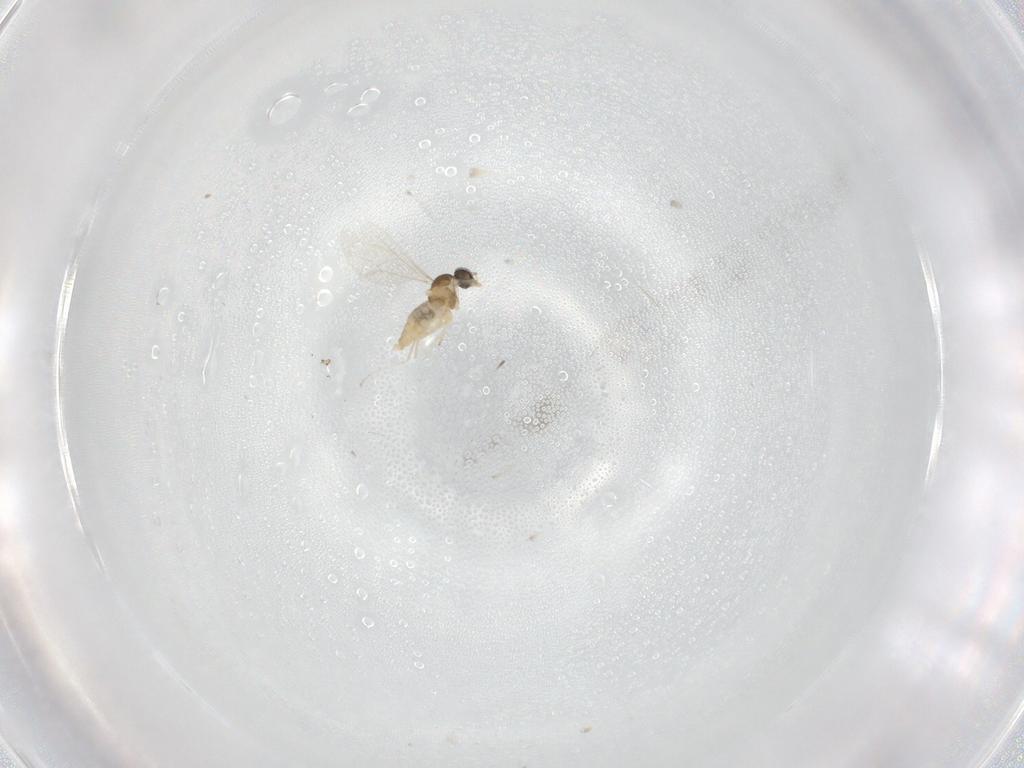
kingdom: Animalia
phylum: Arthropoda
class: Insecta
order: Diptera
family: Cecidomyiidae
